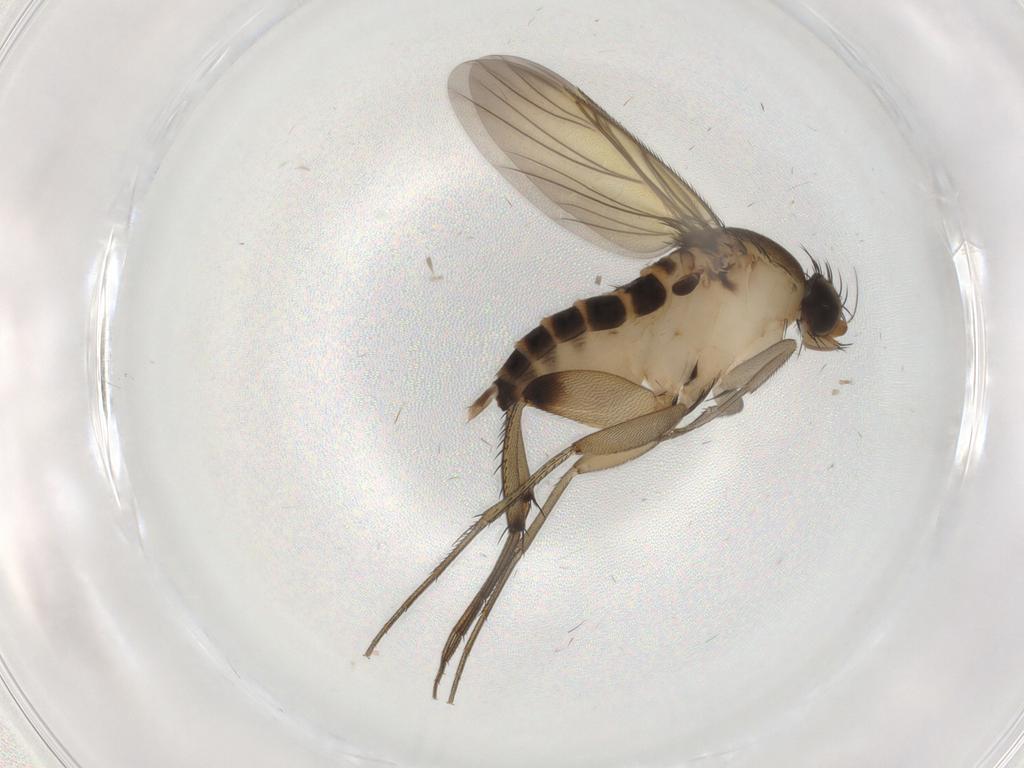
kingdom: Animalia
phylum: Arthropoda
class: Insecta
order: Diptera
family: Phoridae
